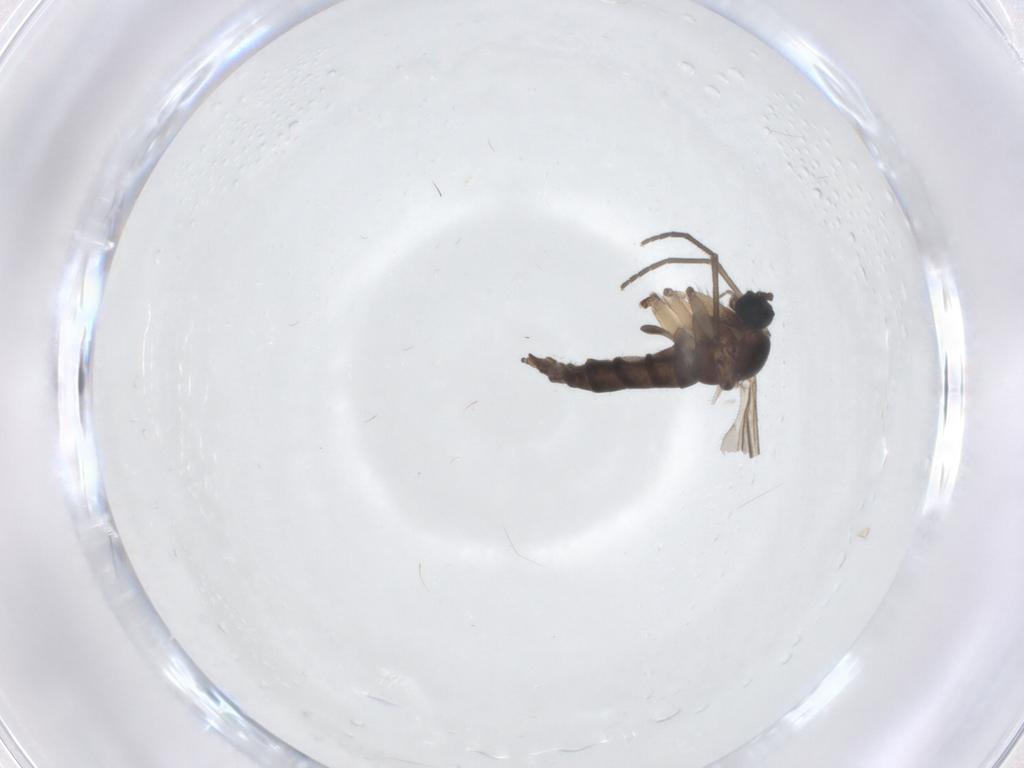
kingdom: Animalia
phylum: Arthropoda
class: Insecta
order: Diptera
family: Sciaridae
